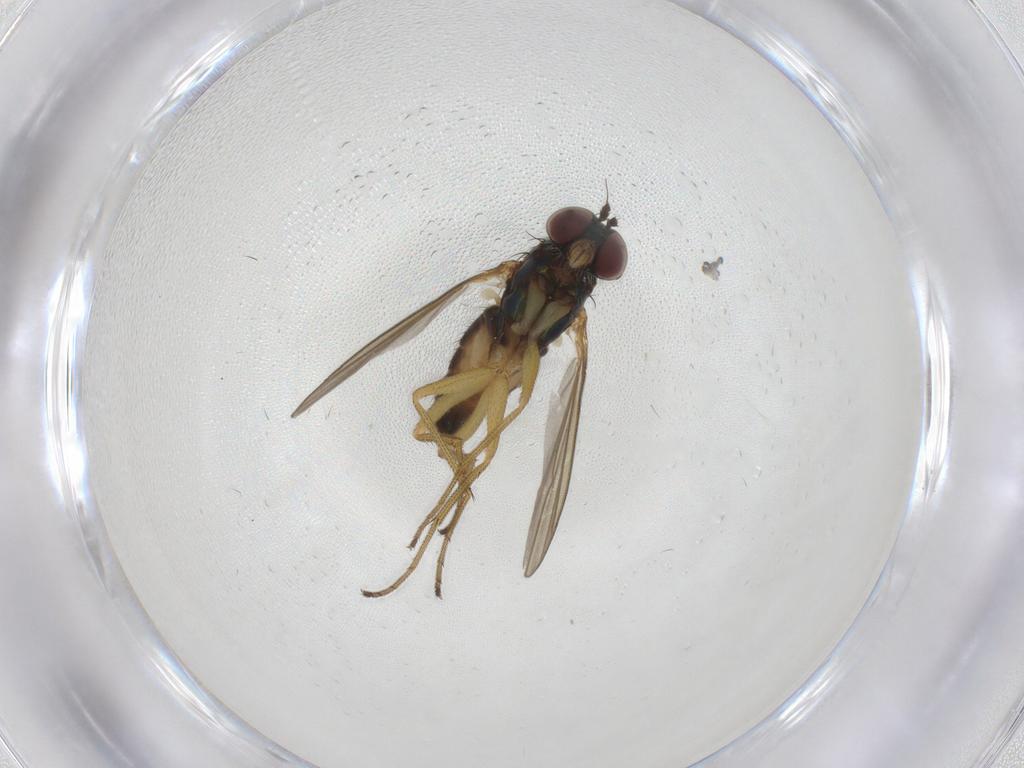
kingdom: Animalia
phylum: Arthropoda
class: Insecta
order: Diptera
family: Dolichopodidae
